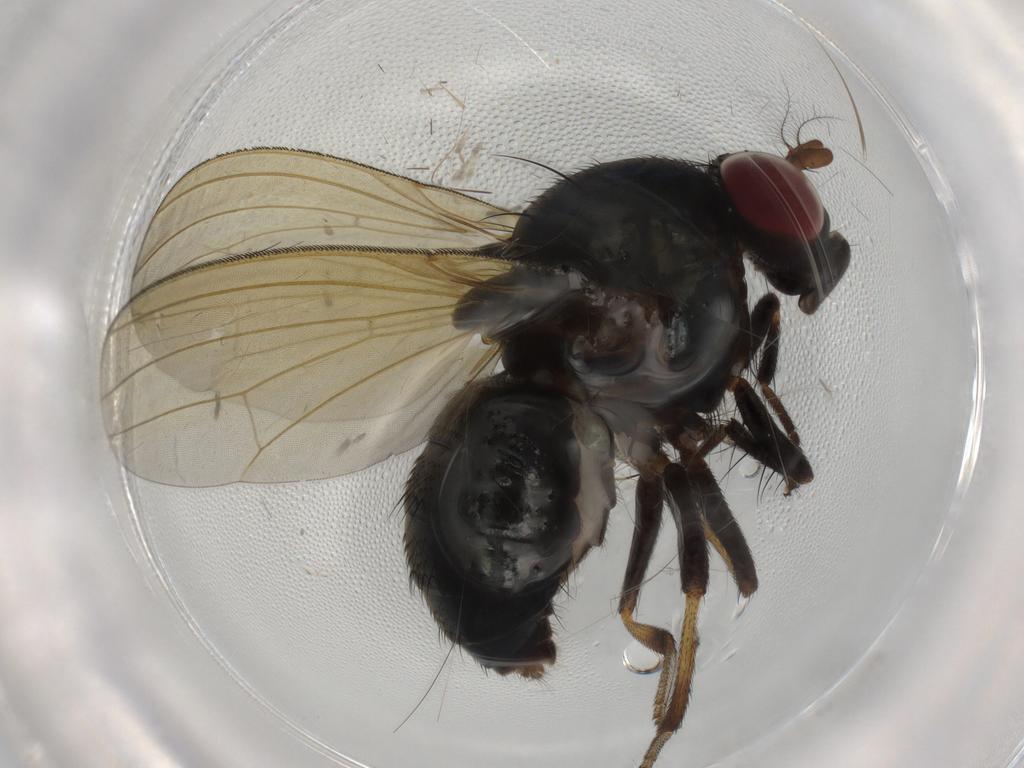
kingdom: Animalia
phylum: Arthropoda
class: Insecta
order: Diptera
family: Lauxaniidae
